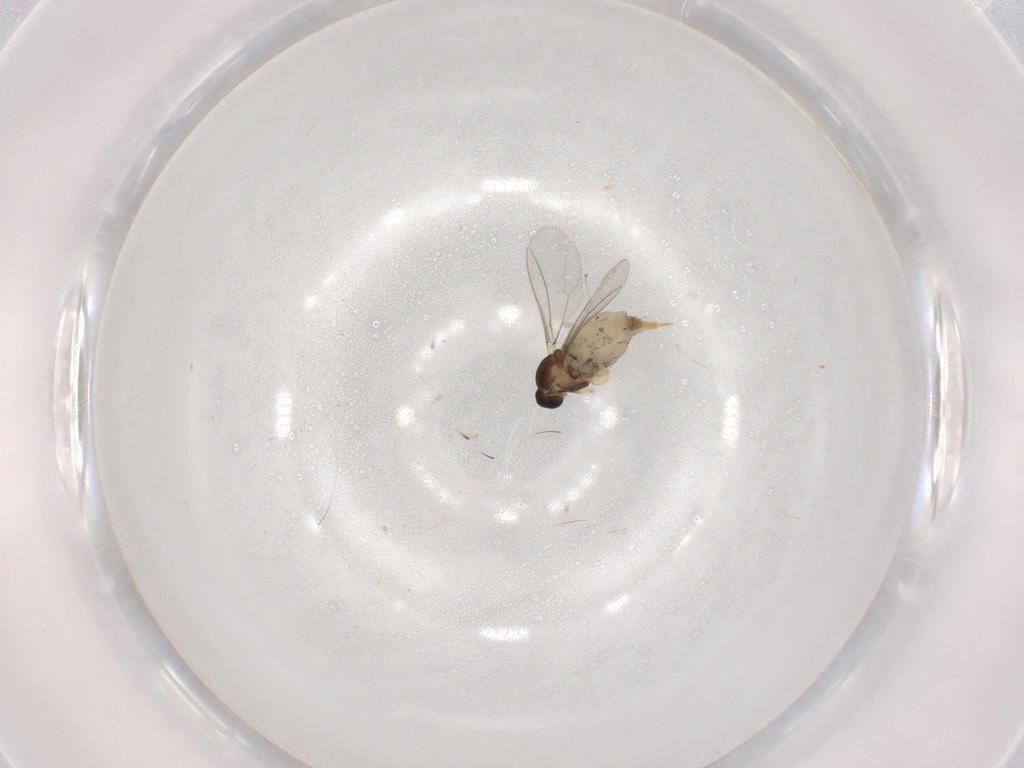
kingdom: Animalia
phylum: Arthropoda
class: Insecta
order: Diptera
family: Cecidomyiidae
